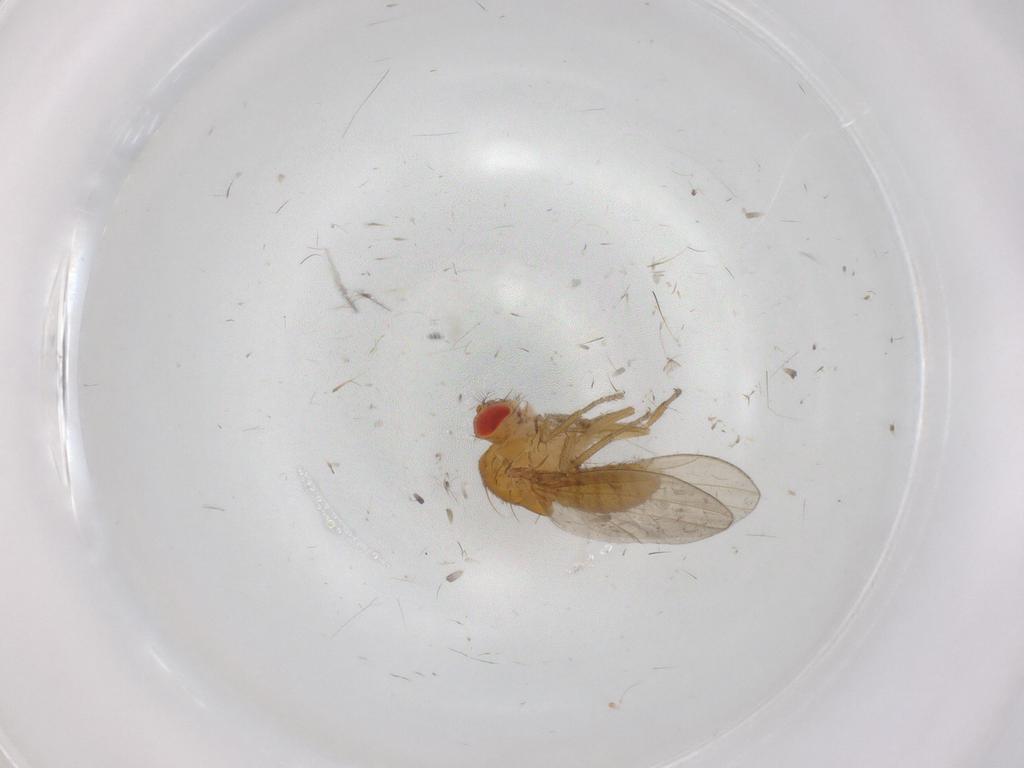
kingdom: Animalia
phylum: Arthropoda
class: Insecta
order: Diptera
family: Drosophilidae
